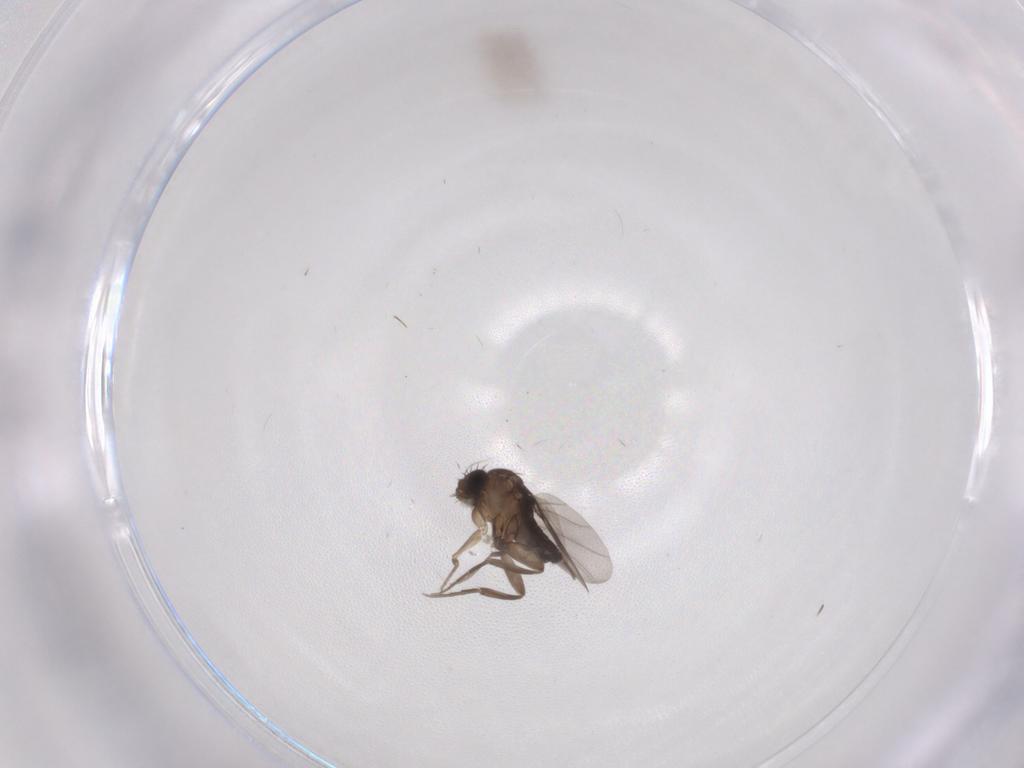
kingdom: Animalia
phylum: Arthropoda
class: Insecta
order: Diptera
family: Phoridae
